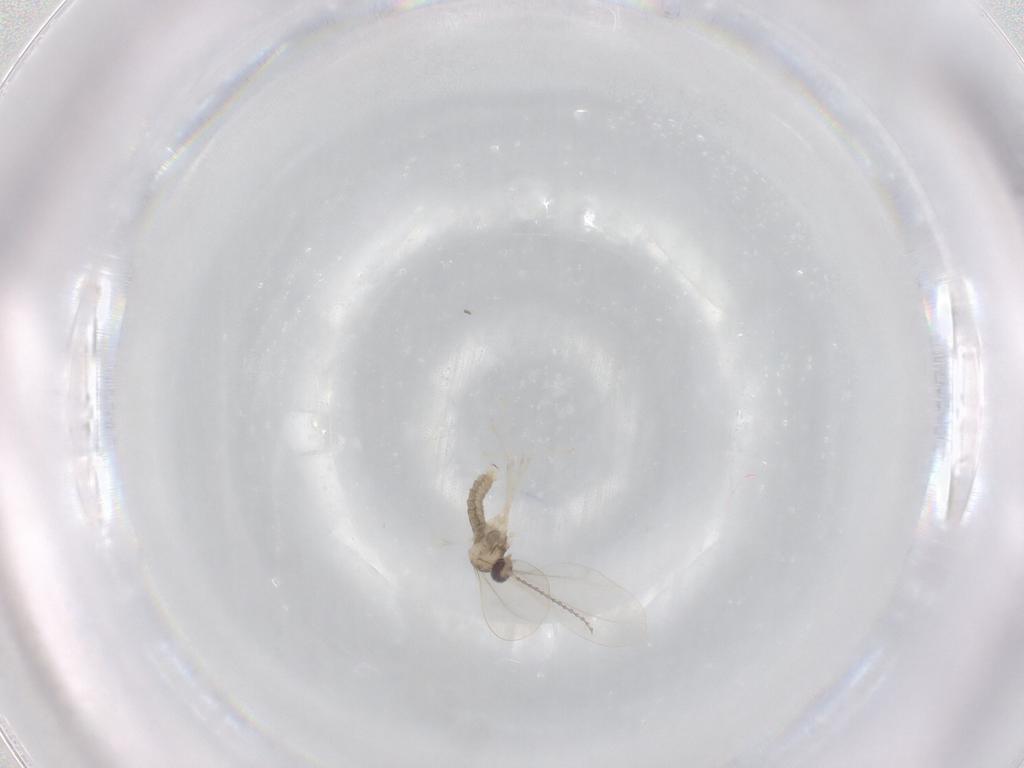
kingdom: Animalia
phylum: Arthropoda
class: Insecta
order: Diptera
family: Cecidomyiidae
